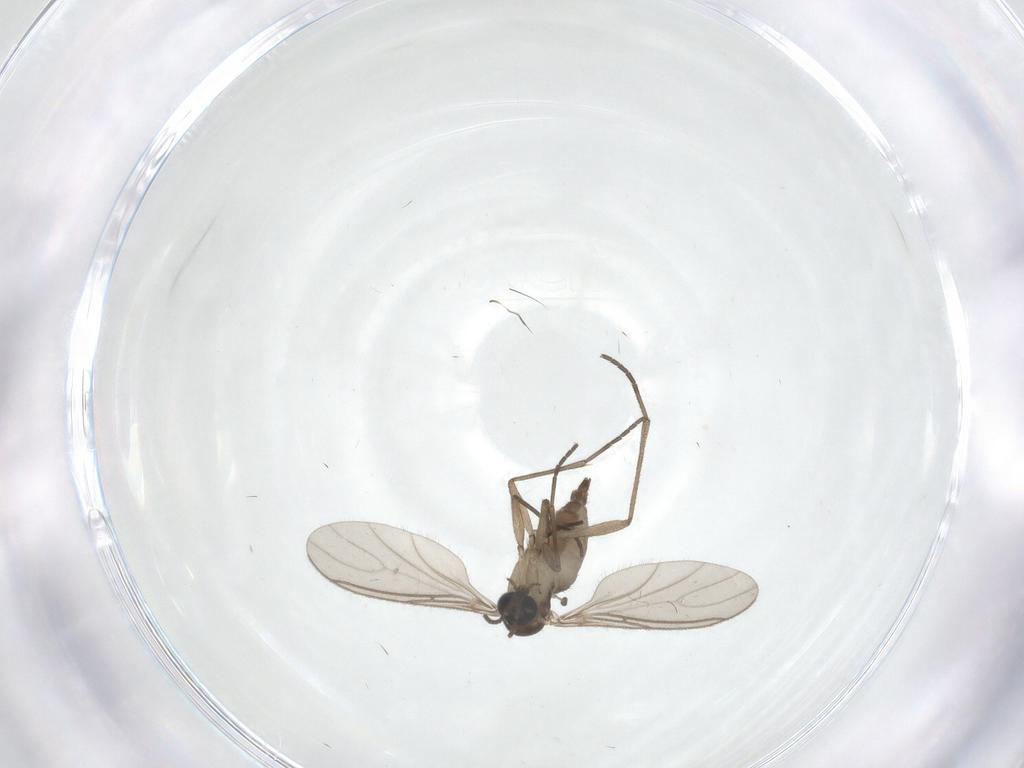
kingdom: Animalia
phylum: Arthropoda
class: Insecta
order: Diptera
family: Sciaridae
